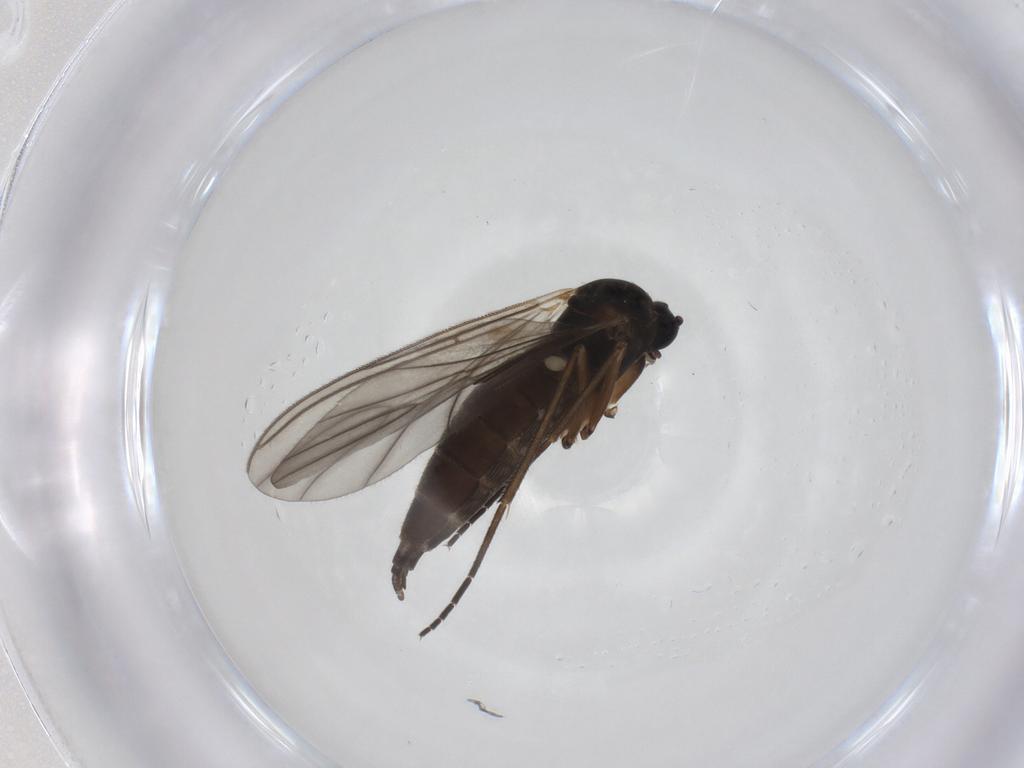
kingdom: Animalia
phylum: Arthropoda
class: Insecta
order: Diptera
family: Sciaridae
